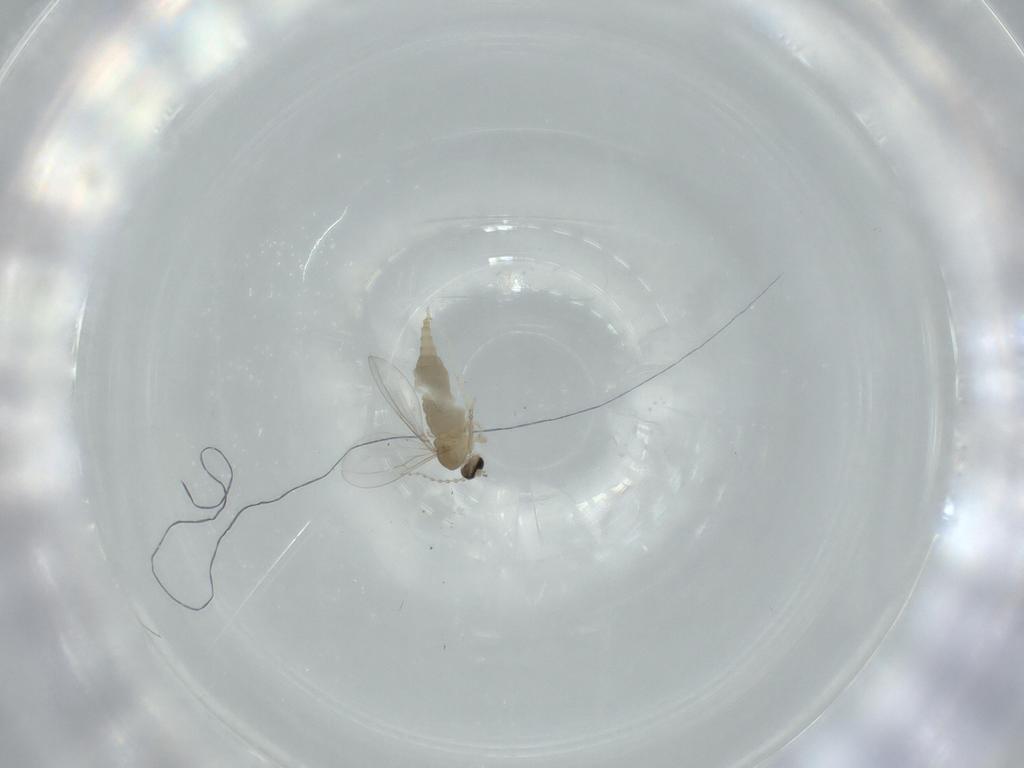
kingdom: Animalia
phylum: Arthropoda
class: Insecta
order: Diptera
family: Cecidomyiidae
